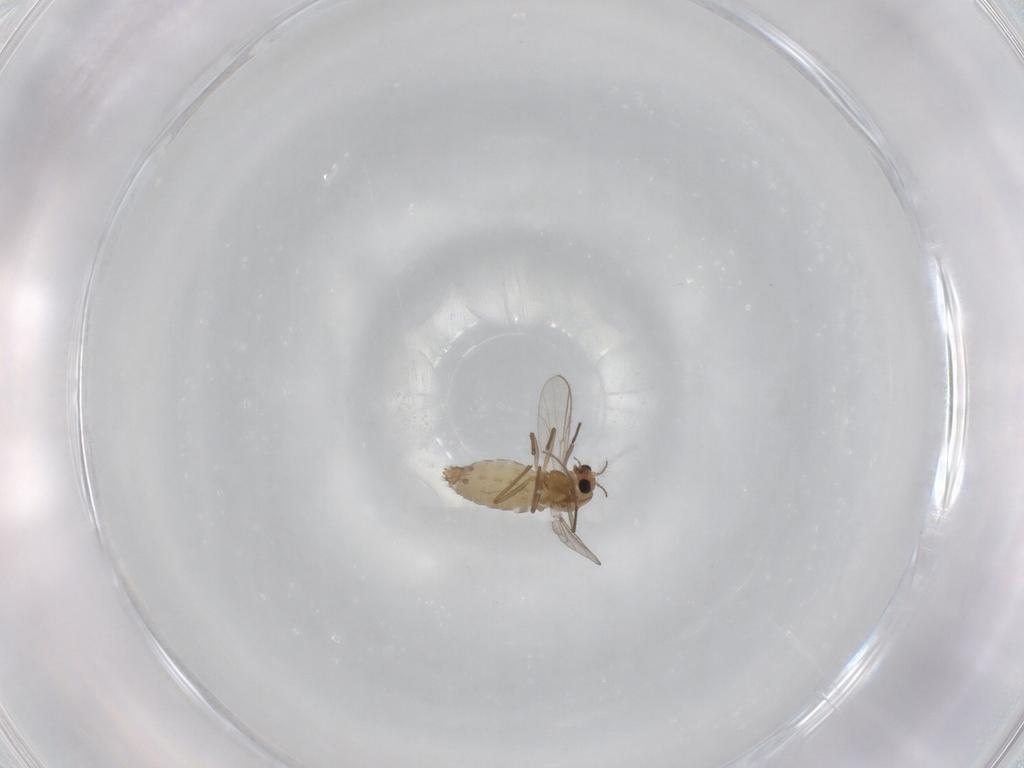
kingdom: Animalia
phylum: Arthropoda
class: Insecta
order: Diptera
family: Chironomidae
